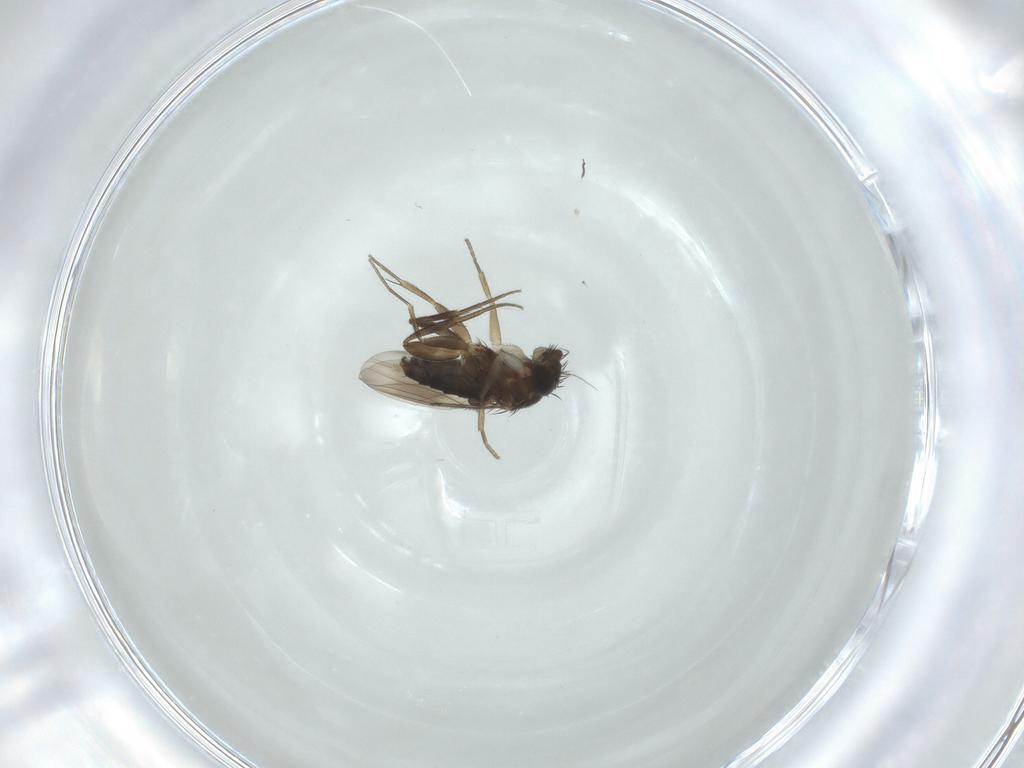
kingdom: Animalia
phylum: Arthropoda
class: Insecta
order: Diptera
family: Phoridae
